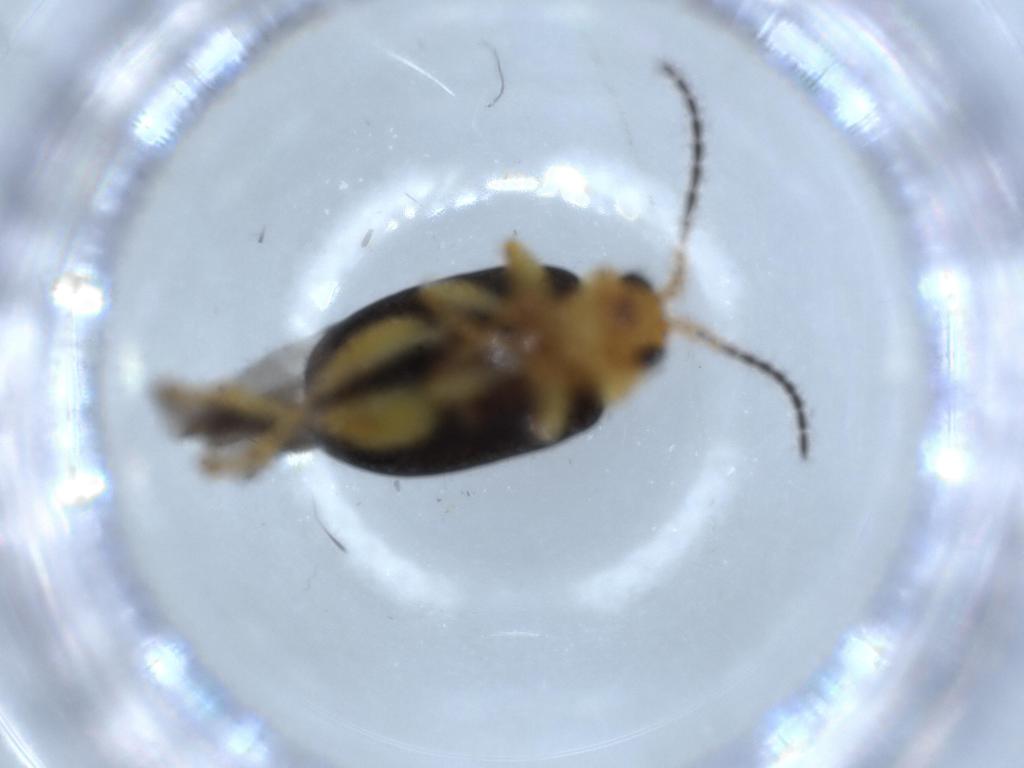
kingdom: Animalia
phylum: Arthropoda
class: Insecta
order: Coleoptera
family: Chrysomelidae
